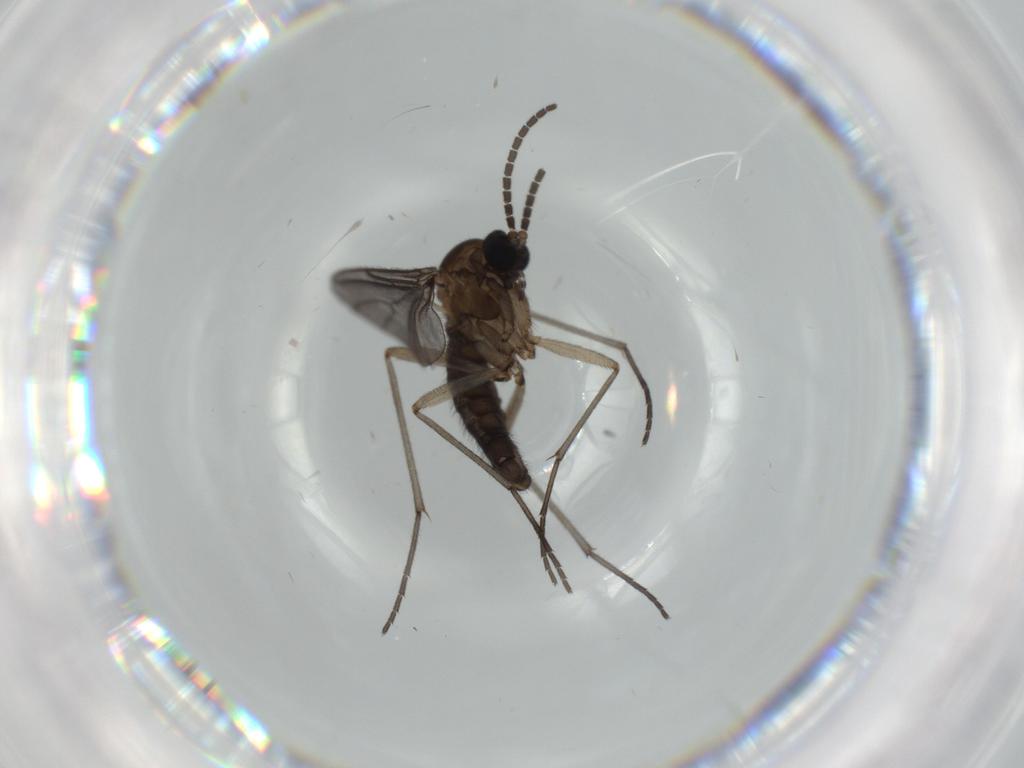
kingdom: Animalia
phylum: Arthropoda
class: Insecta
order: Diptera
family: Sciaridae
